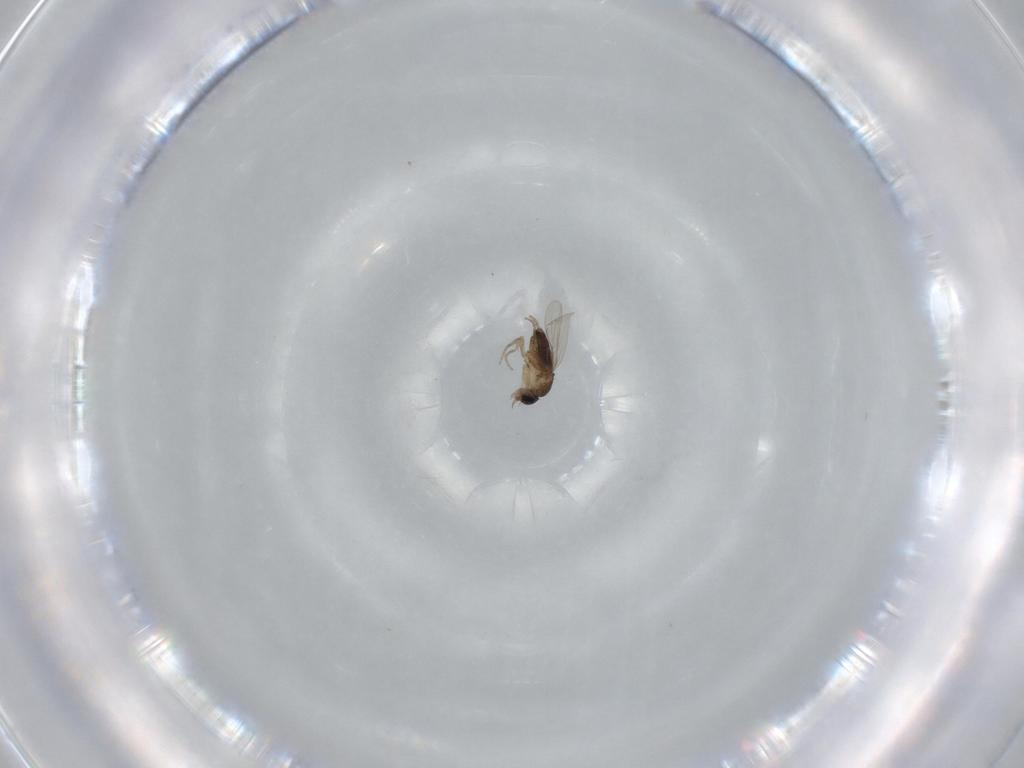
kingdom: Animalia
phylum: Arthropoda
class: Insecta
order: Diptera
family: Phoridae
